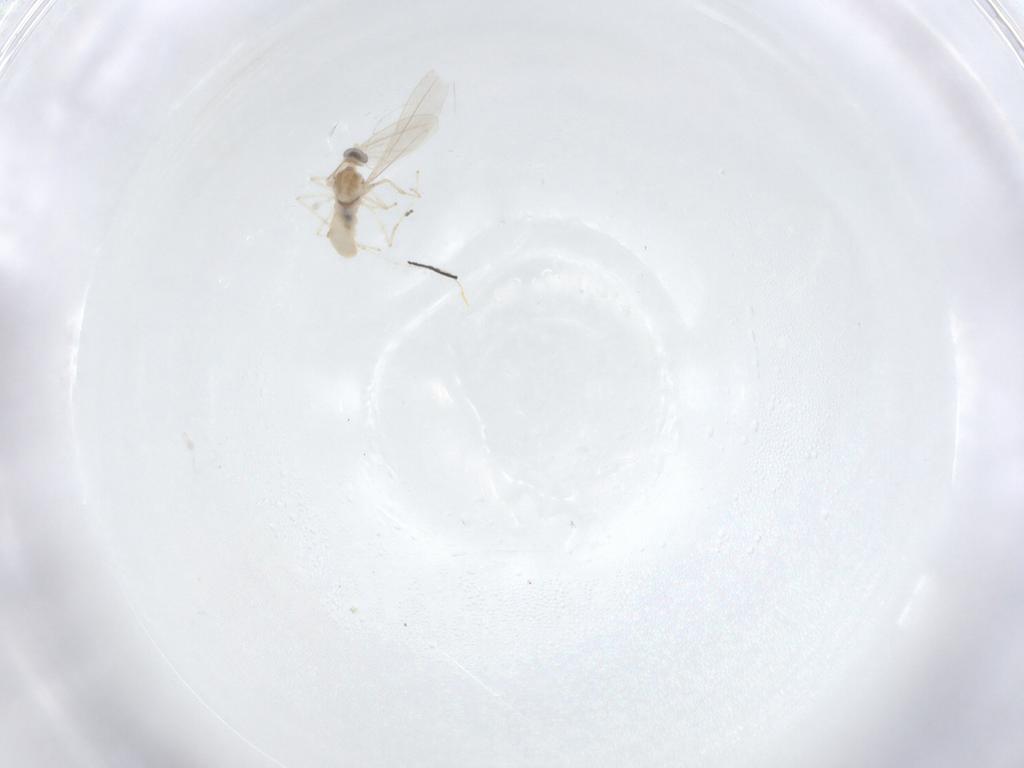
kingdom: Animalia
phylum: Arthropoda
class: Insecta
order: Diptera
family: Cecidomyiidae
